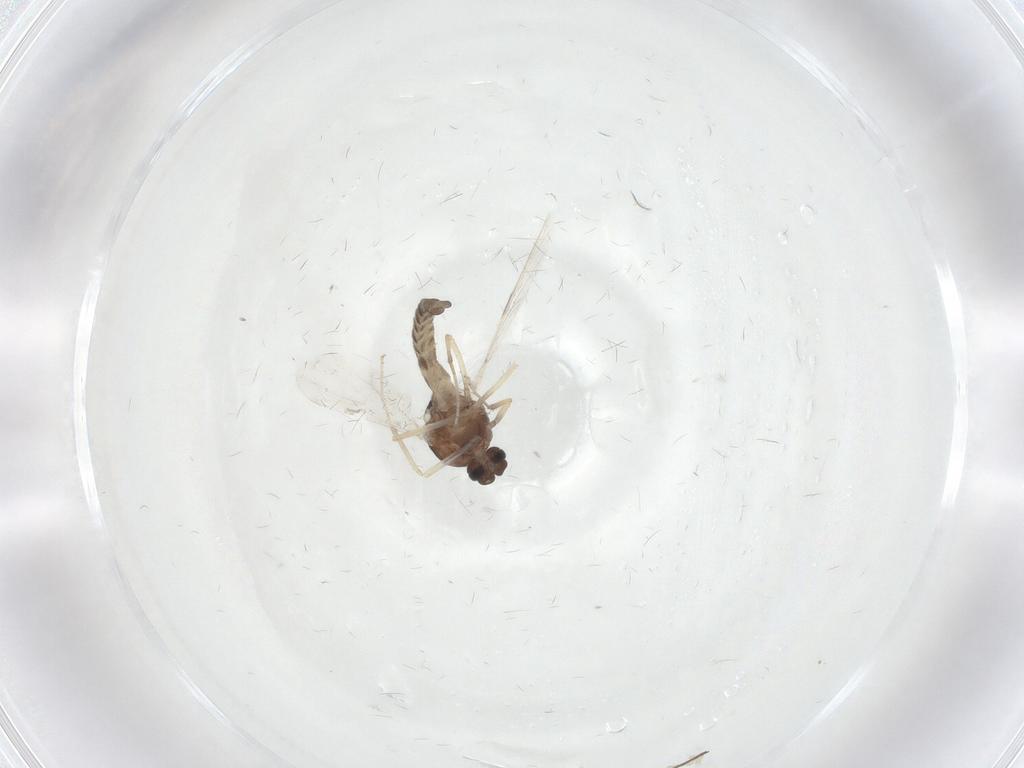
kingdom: Animalia
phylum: Arthropoda
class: Insecta
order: Diptera
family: Ceratopogonidae
